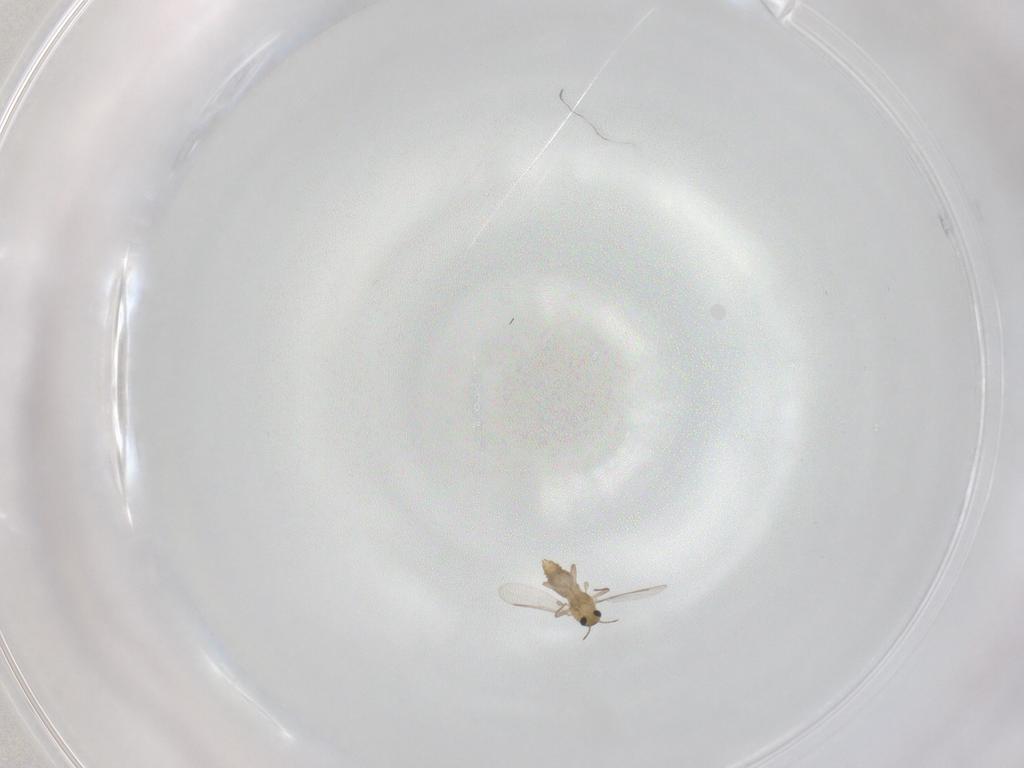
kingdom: Animalia
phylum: Arthropoda
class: Insecta
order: Diptera
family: Chironomidae
